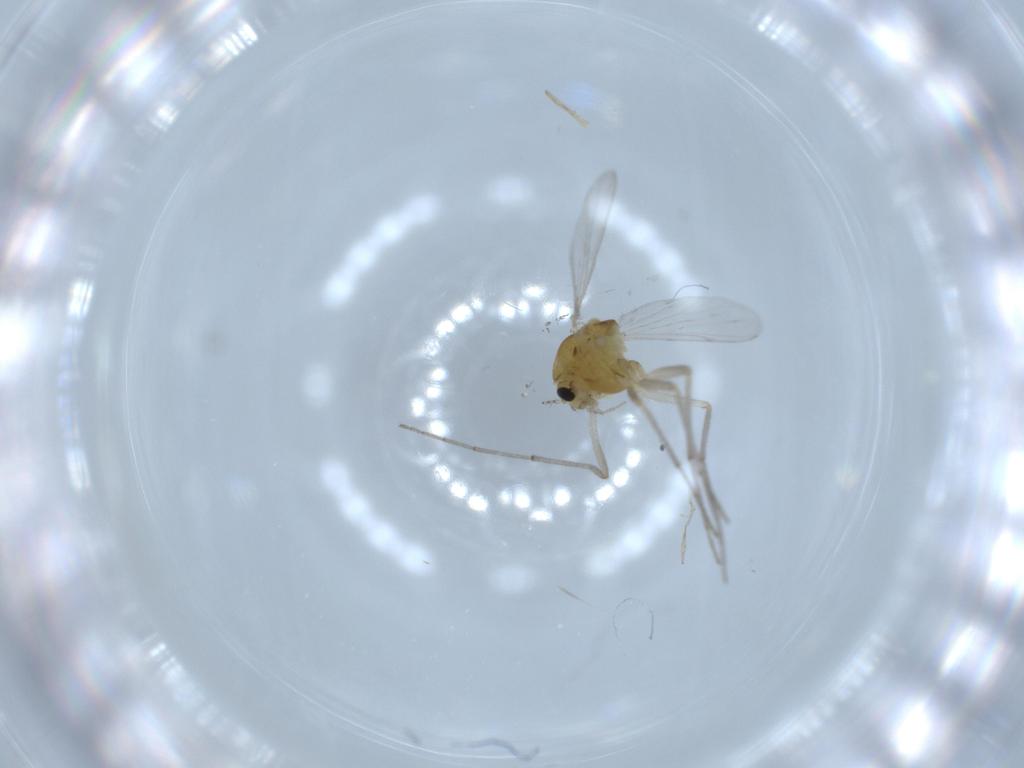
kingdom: Animalia
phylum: Arthropoda
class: Insecta
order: Diptera
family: Chironomidae
